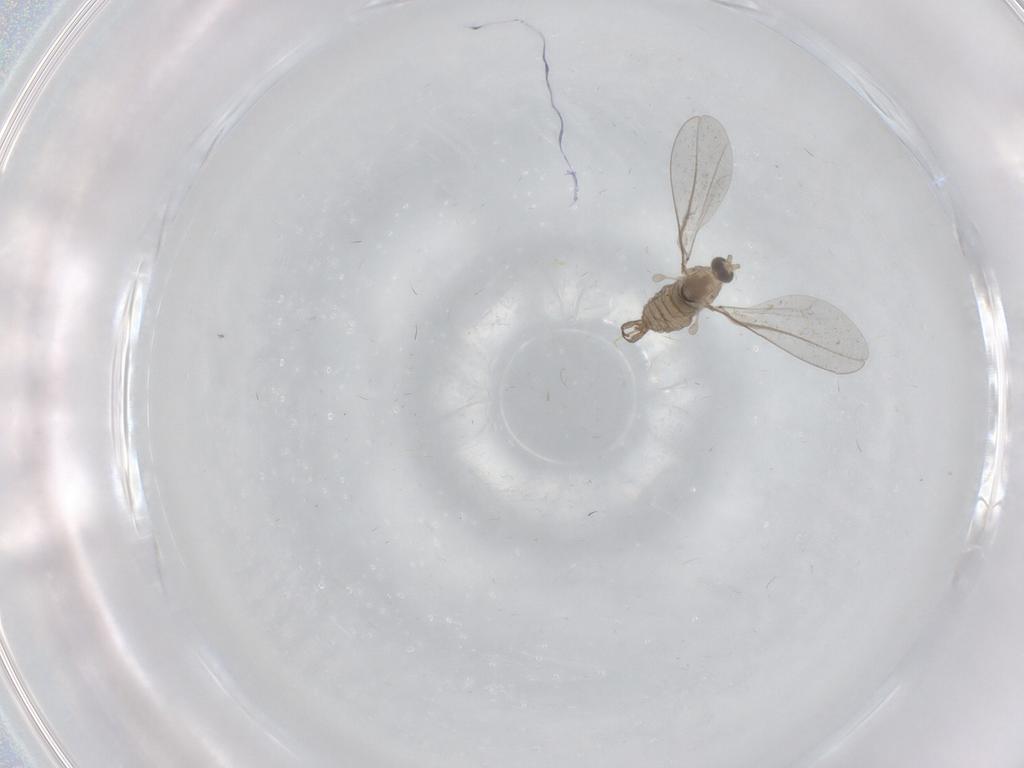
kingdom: Animalia
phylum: Arthropoda
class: Insecta
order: Diptera
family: Cecidomyiidae
